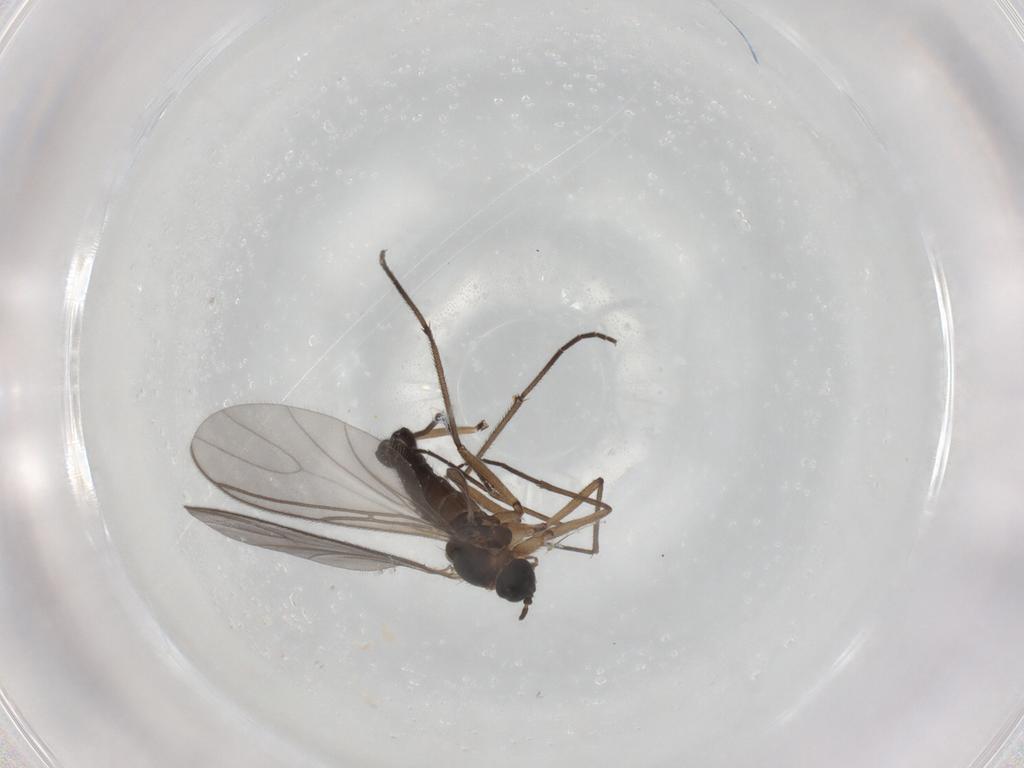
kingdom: Animalia
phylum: Arthropoda
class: Insecta
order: Diptera
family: Sciaridae
